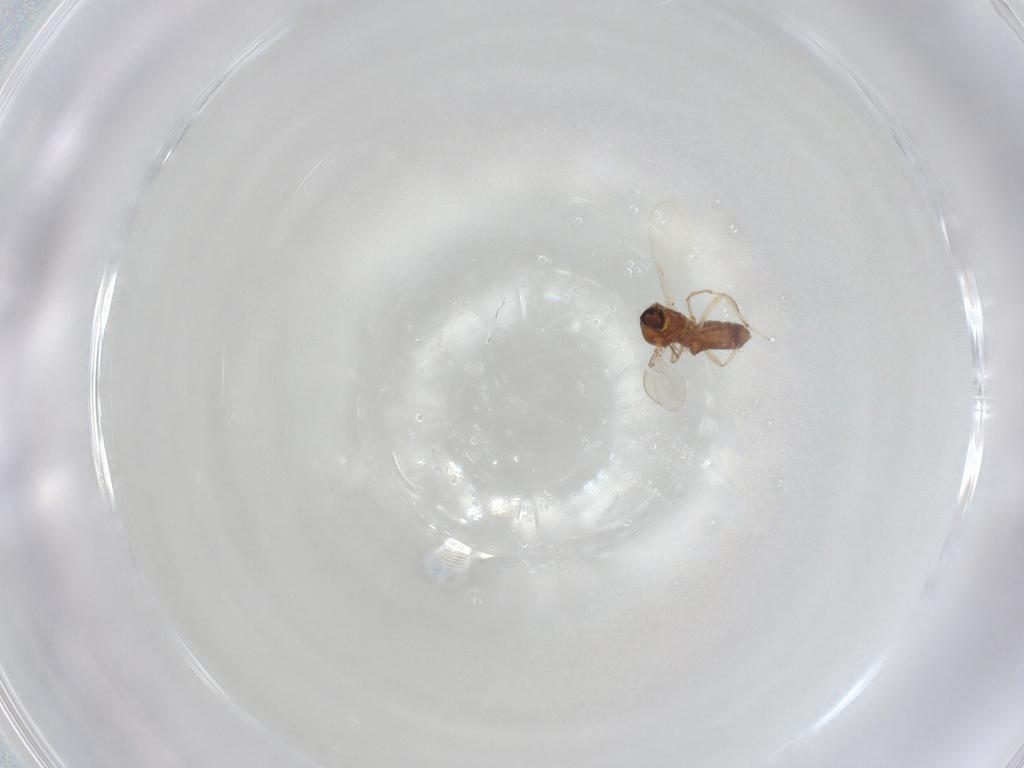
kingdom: Animalia
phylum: Arthropoda
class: Insecta
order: Diptera
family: Ceratopogonidae
